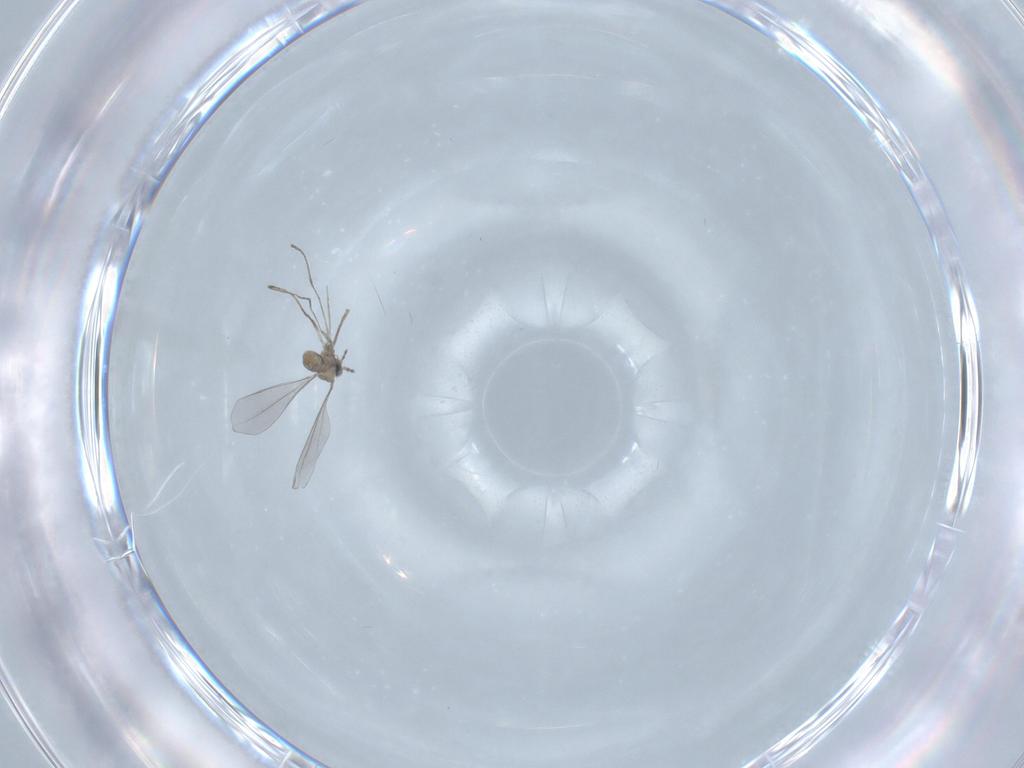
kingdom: Animalia
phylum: Arthropoda
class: Insecta
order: Diptera
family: Cecidomyiidae
